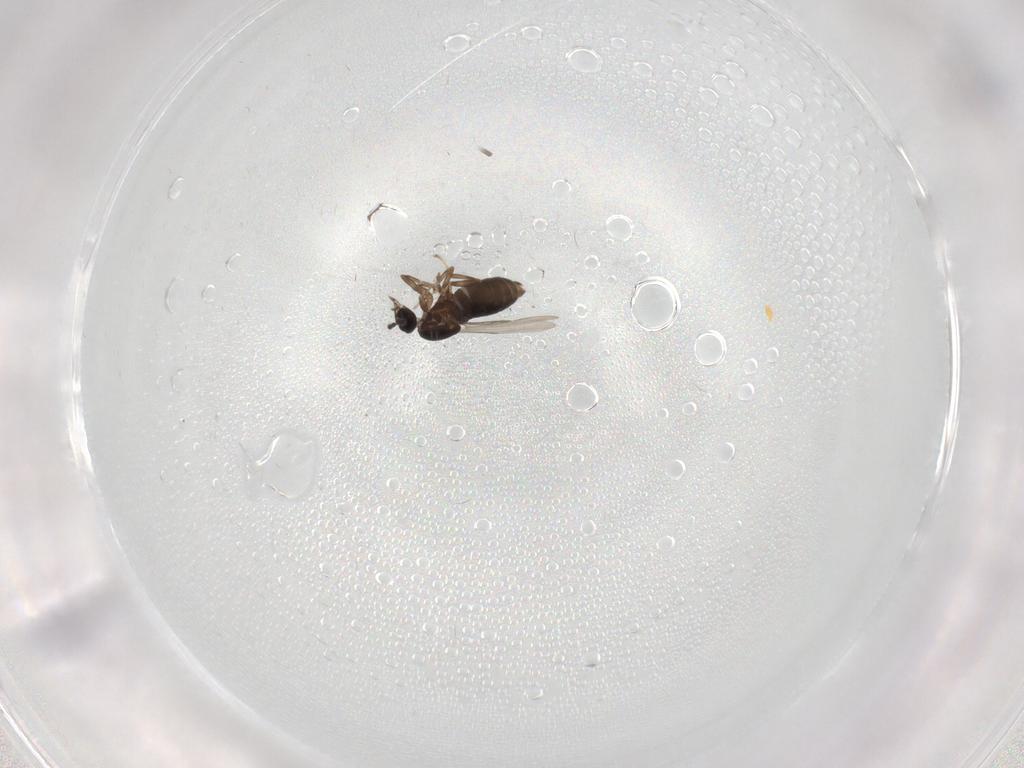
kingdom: Animalia
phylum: Arthropoda
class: Insecta
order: Diptera
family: Scatopsidae
